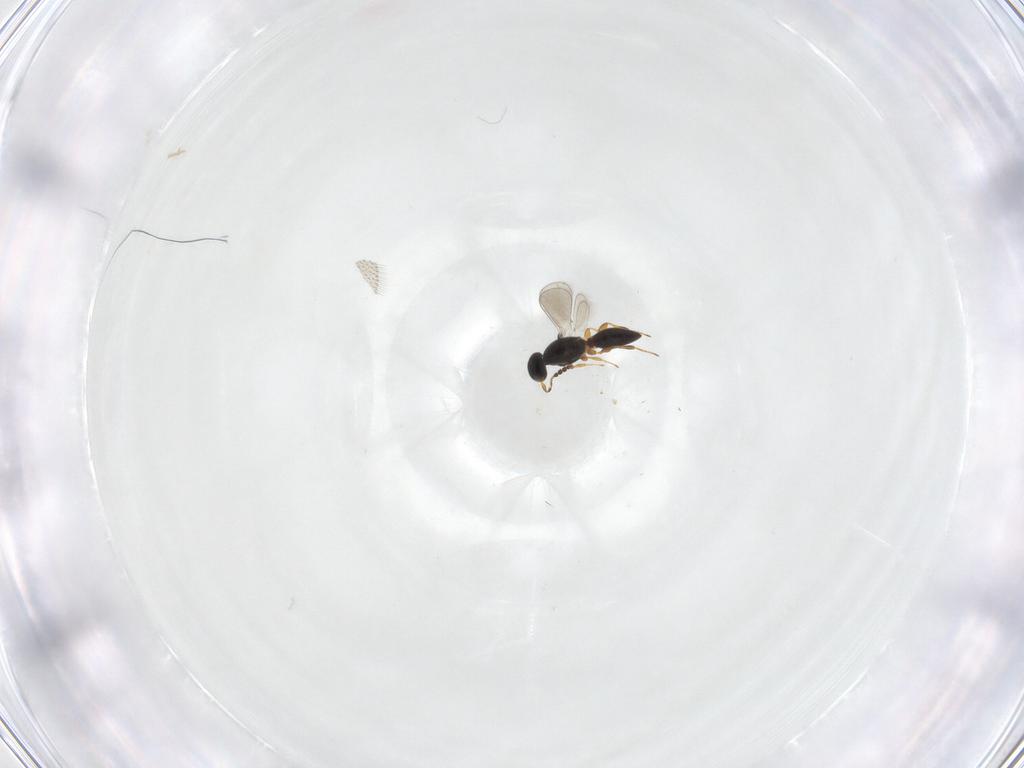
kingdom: Animalia
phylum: Arthropoda
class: Insecta
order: Hymenoptera
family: Platygastridae
